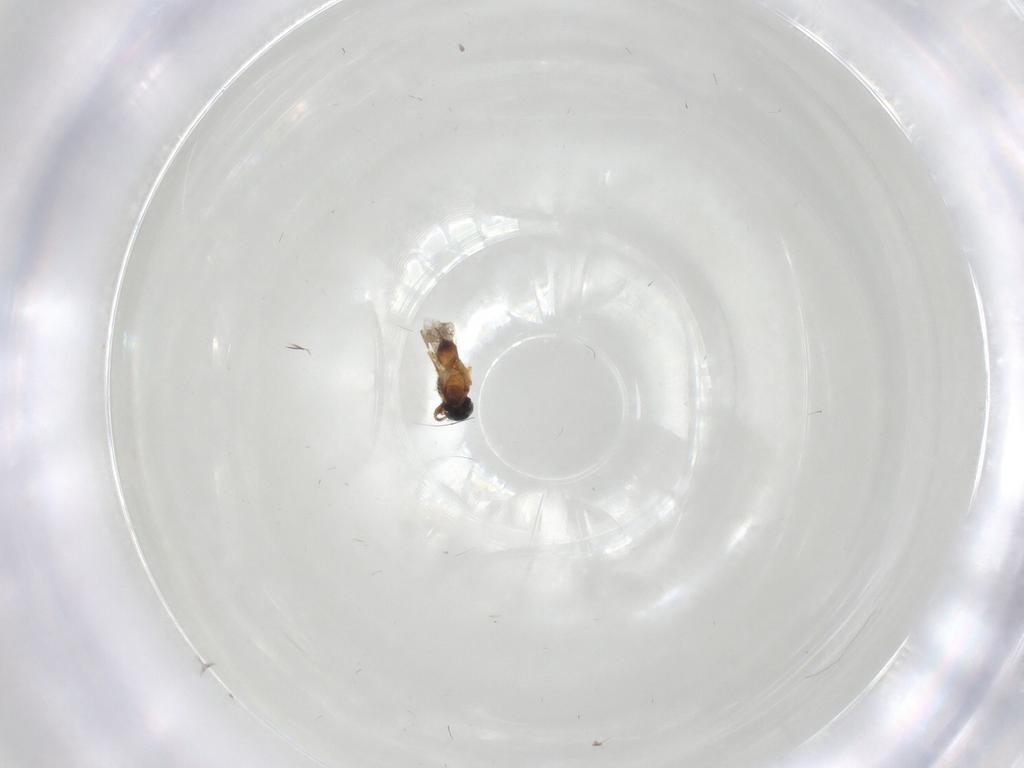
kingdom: Animalia
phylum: Arthropoda
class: Insecta
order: Hymenoptera
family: Scelionidae
